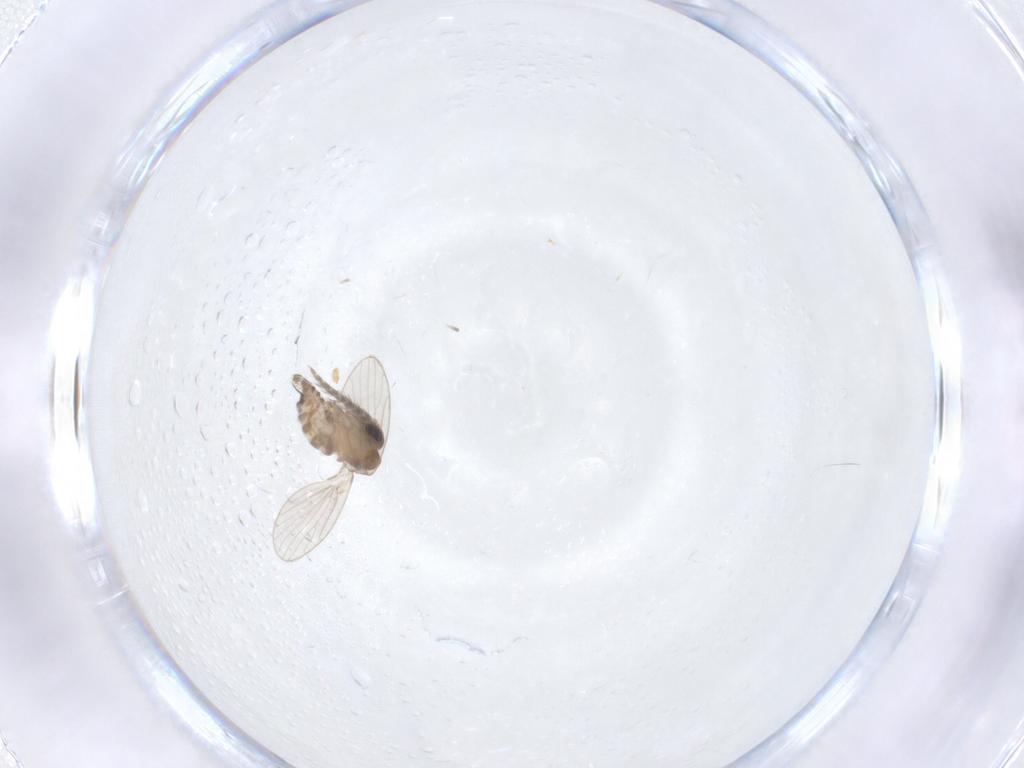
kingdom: Animalia
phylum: Arthropoda
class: Insecta
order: Diptera
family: Psychodidae
